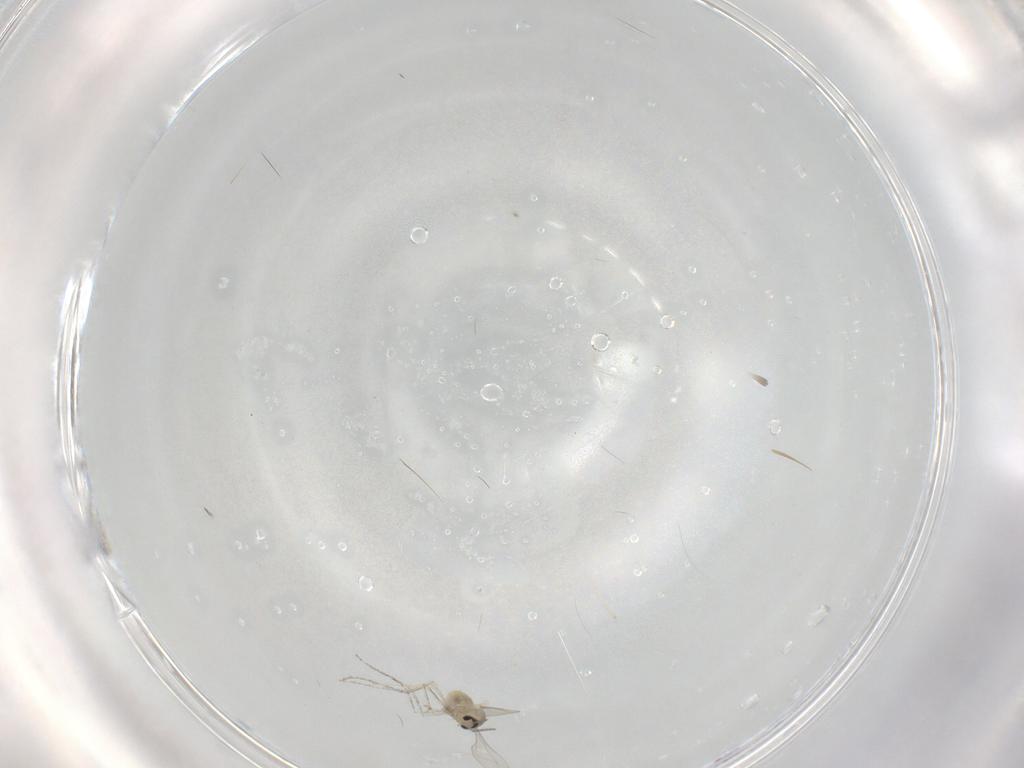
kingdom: Animalia
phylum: Arthropoda
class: Insecta
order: Diptera
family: Cecidomyiidae
